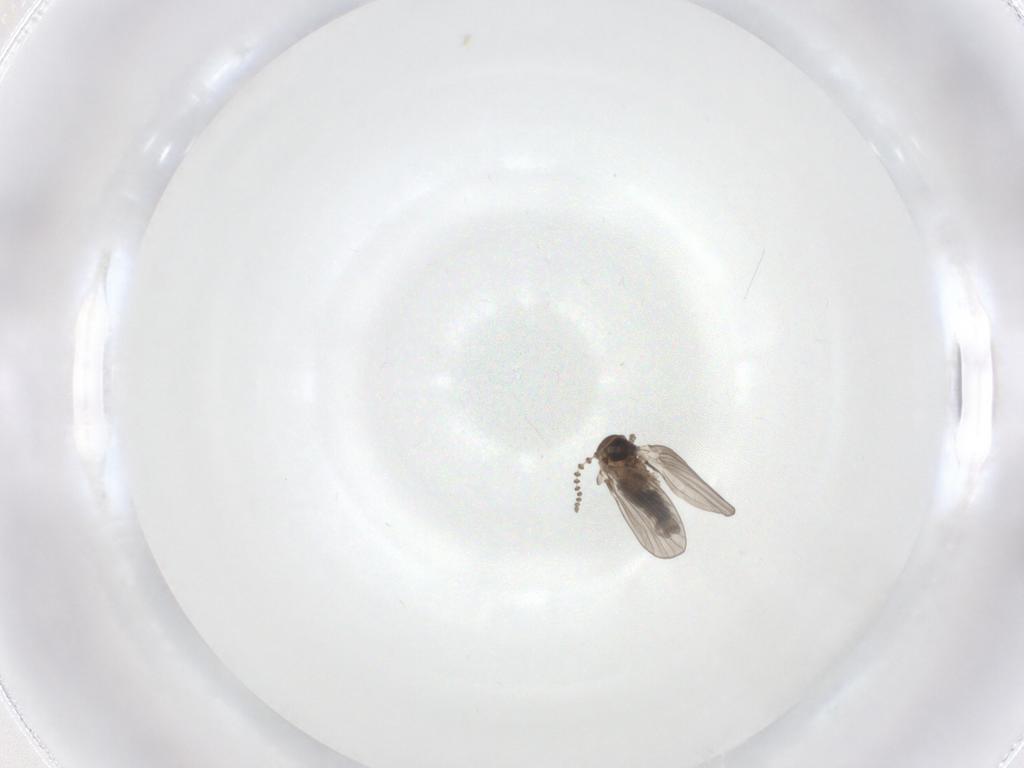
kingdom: Animalia
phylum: Arthropoda
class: Insecta
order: Diptera
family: Psychodidae
